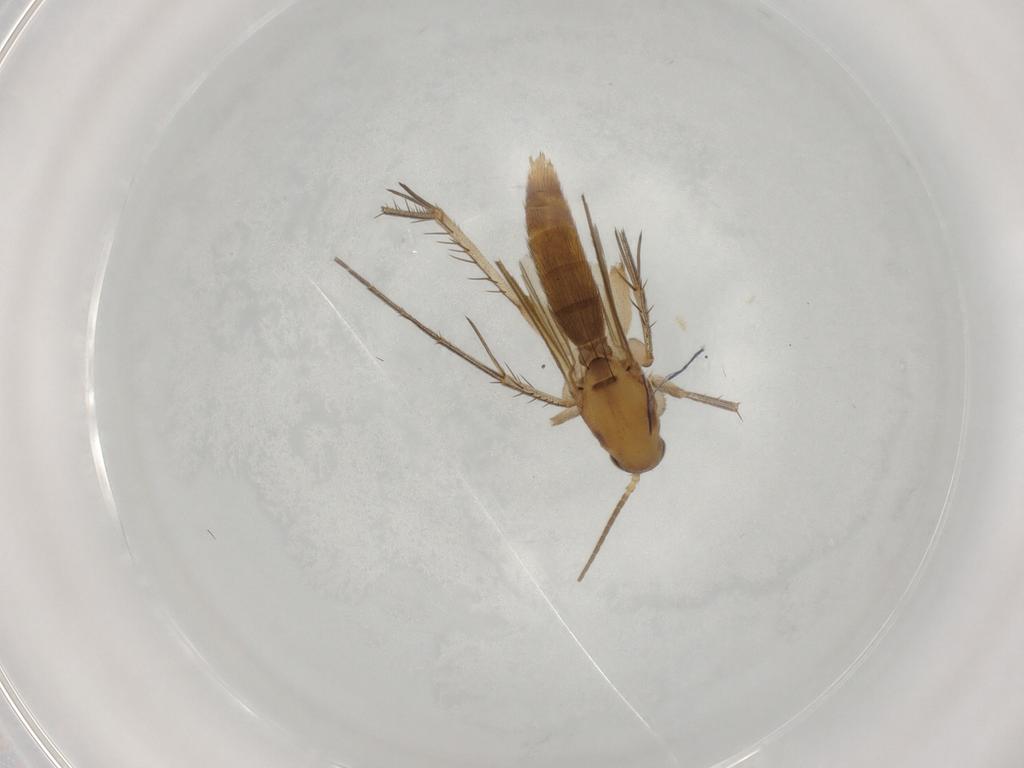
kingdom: Animalia
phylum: Arthropoda
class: Insecta
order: Diptera
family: Mycetophilidae
